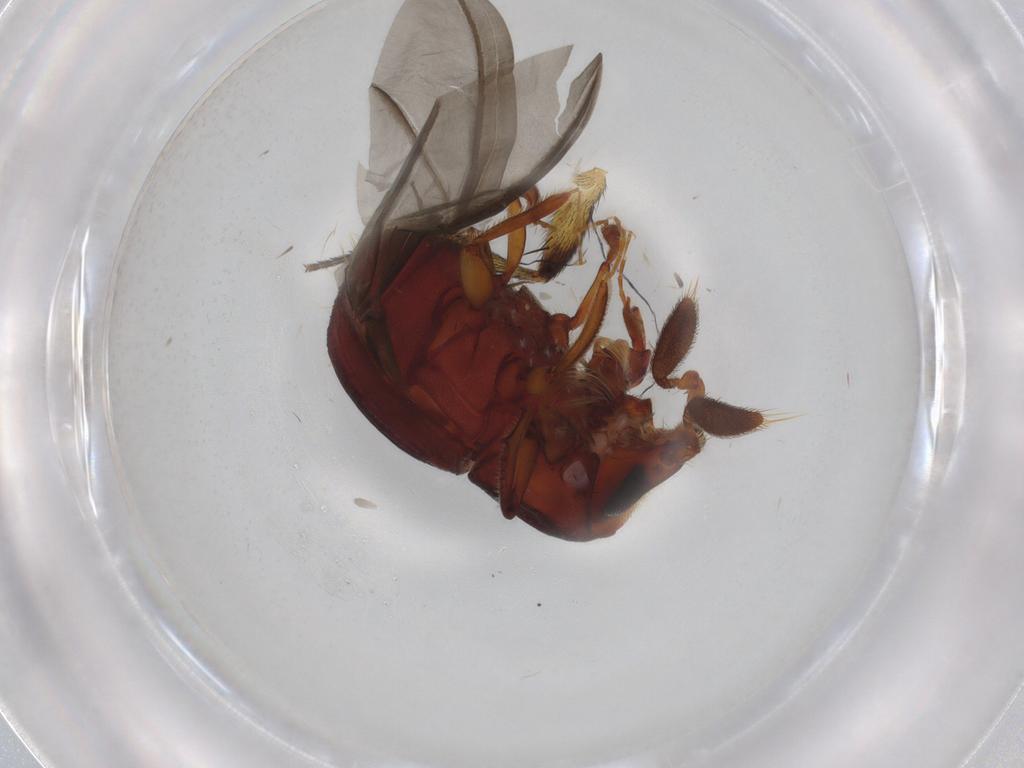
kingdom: Animalia
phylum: Arthropoda
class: Insecta
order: Coleoptera
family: Curculionidae
